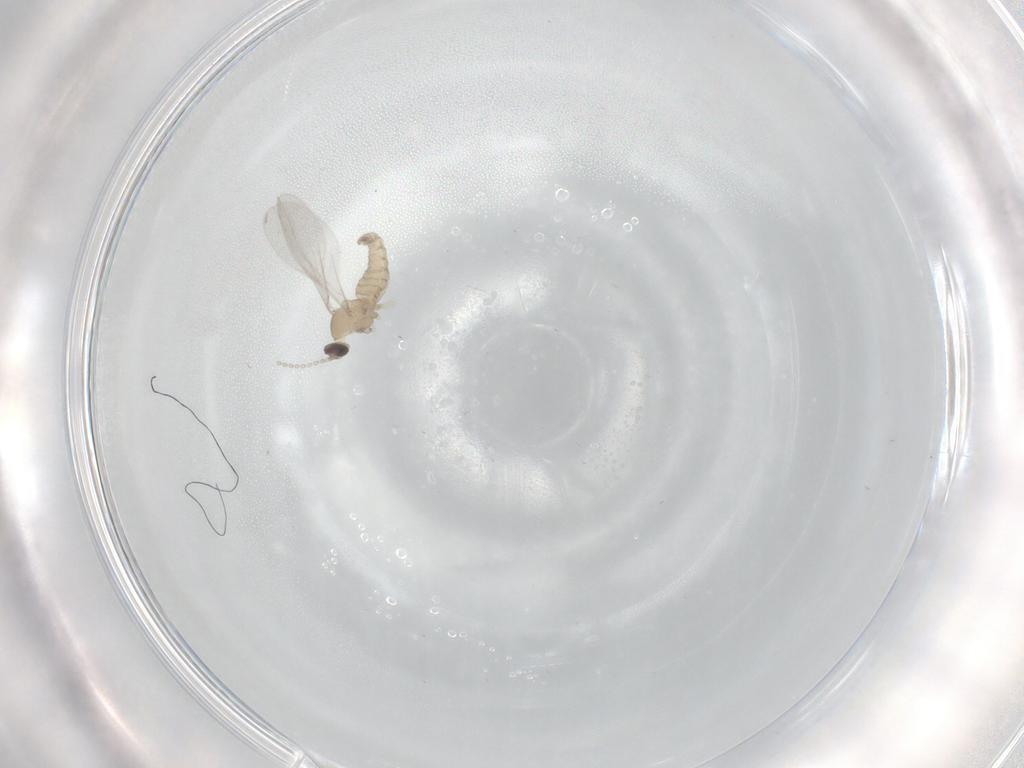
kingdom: Animalia
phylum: Arthropoda
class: Insecta
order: Diptera
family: Cecidomyiidae
